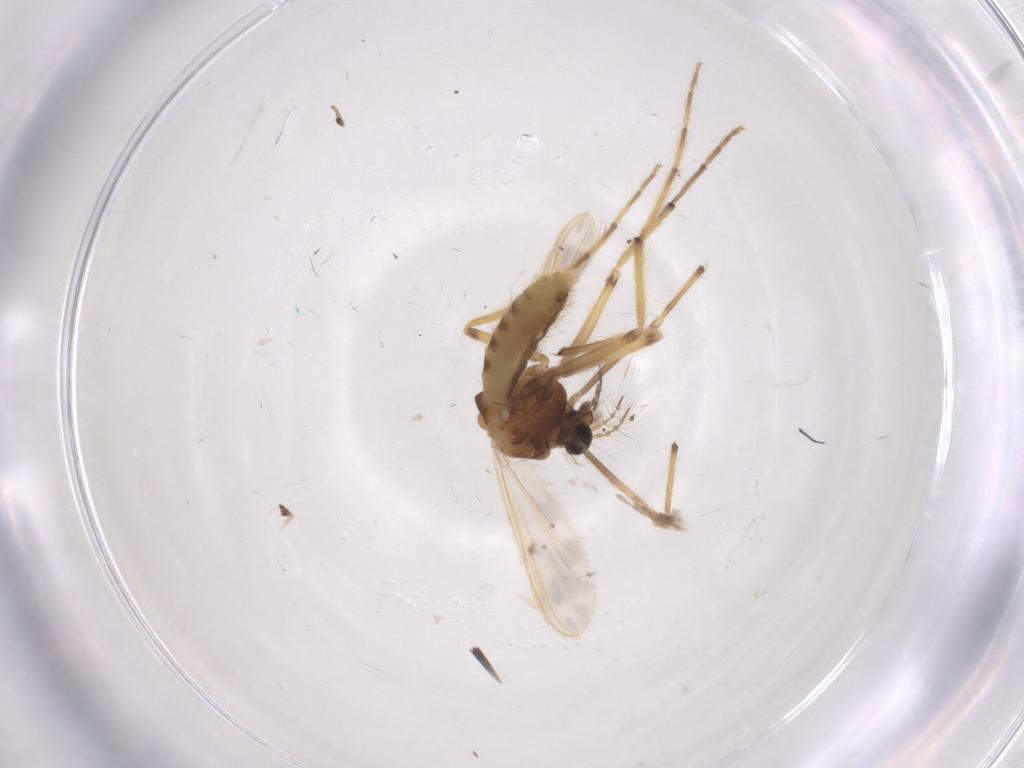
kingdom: Animalia
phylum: Arthropoda
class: Insecta
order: Diptera
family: Chironomidae
